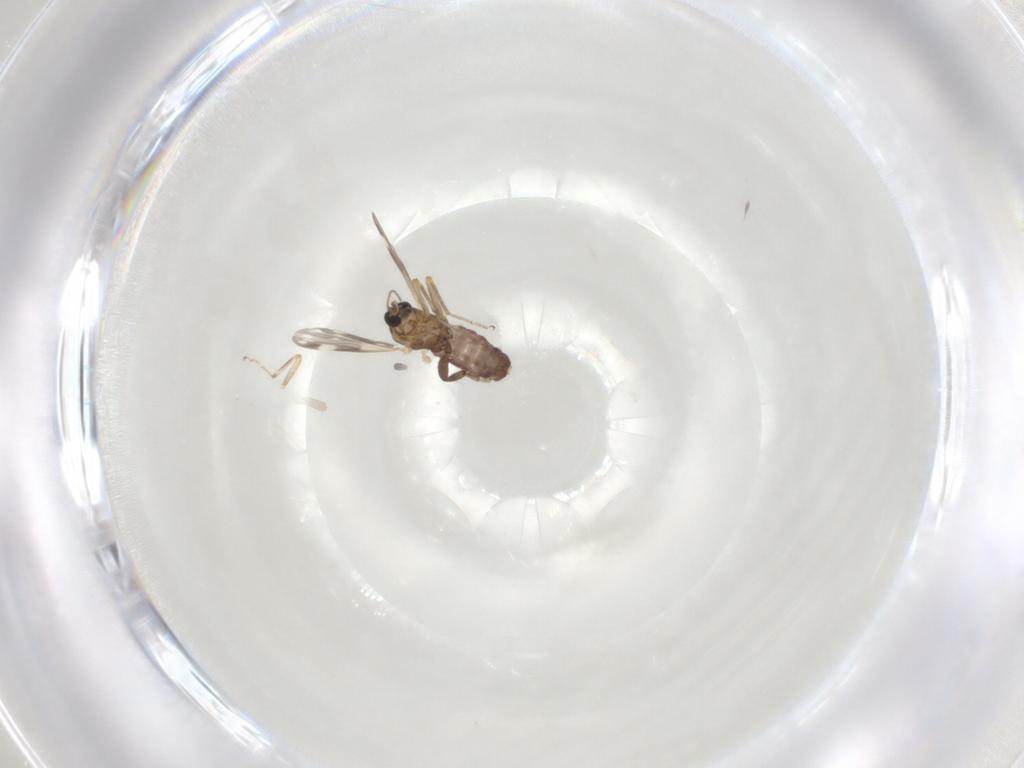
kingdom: Animalia
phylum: Arthropoda
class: Insecta
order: Diptera
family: Ceratopogonidae
